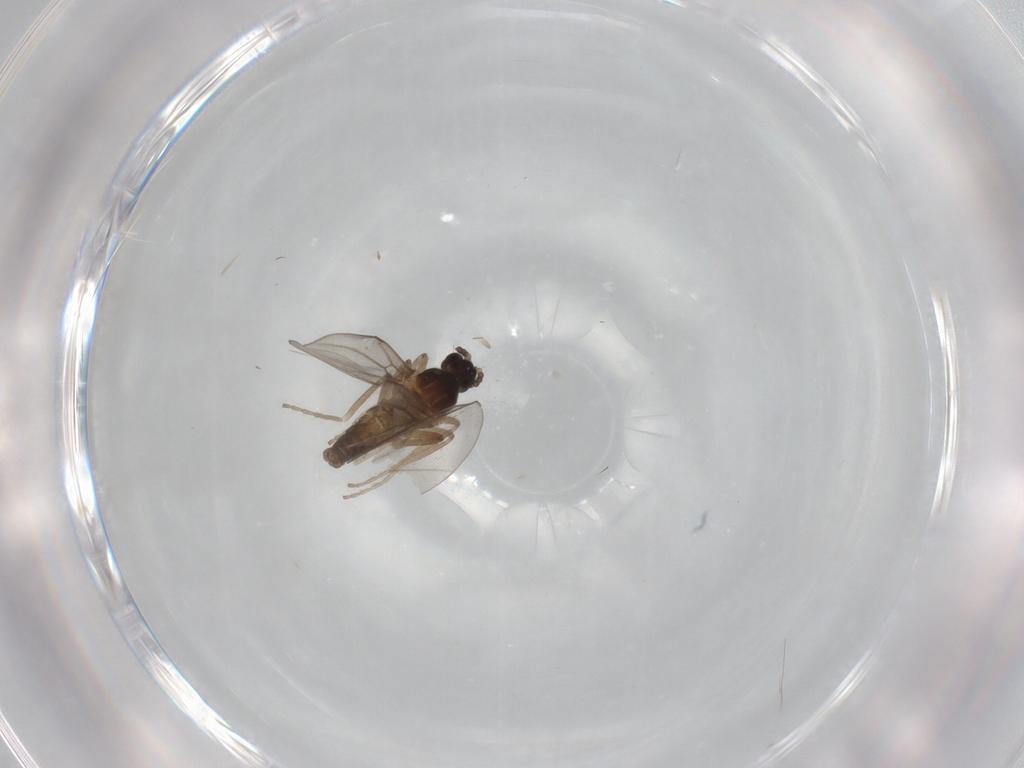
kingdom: Animalia
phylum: Arthropoda
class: Insecta
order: Diptera
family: Cecidomyiidae
